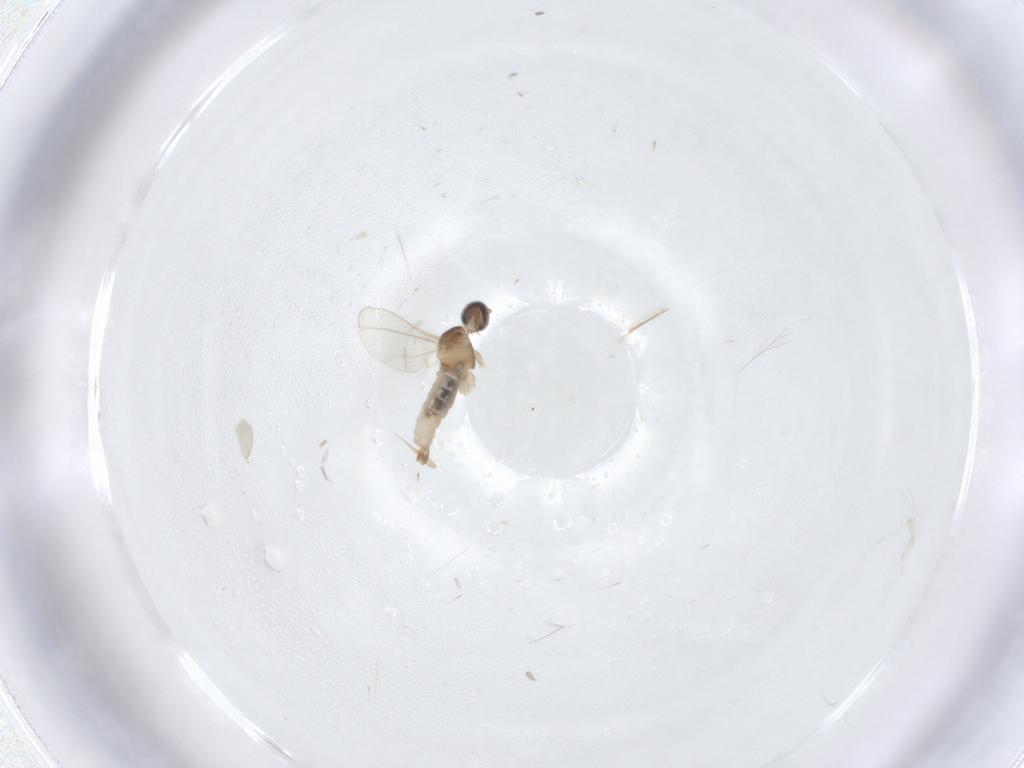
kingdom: Animalia
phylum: Arthropoda
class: Insecta
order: Diptera
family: Cecidomyiidae
